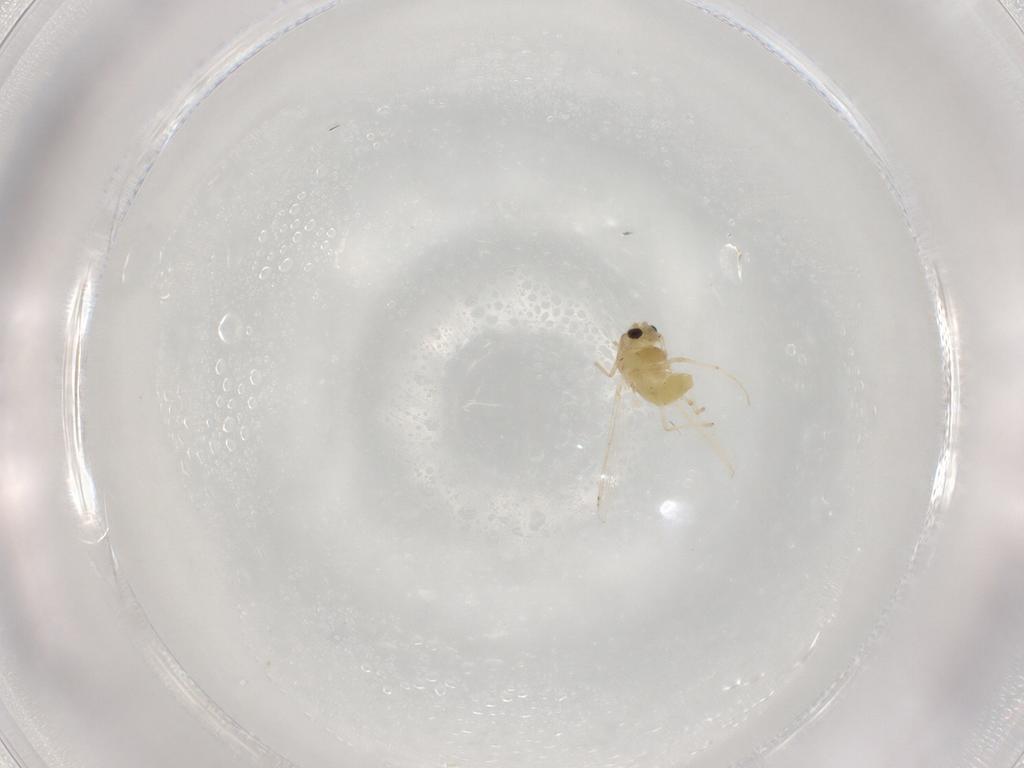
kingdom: Animalia
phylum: Arthropoda
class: Insecta
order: Diptera
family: Chironomidae
